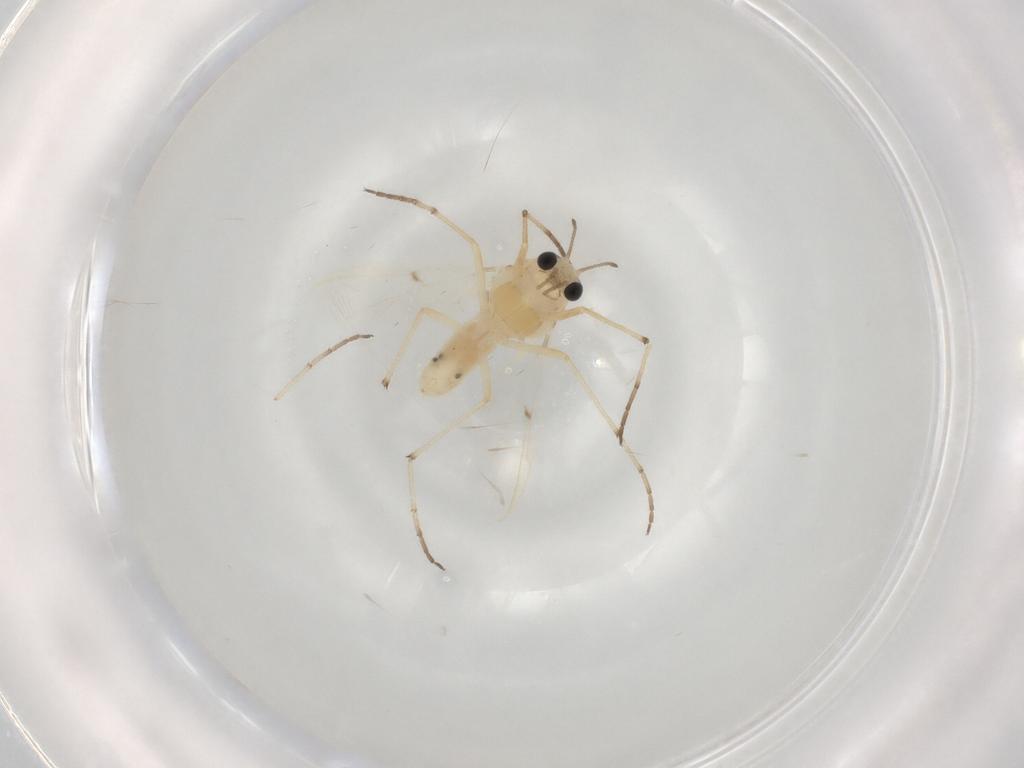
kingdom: Animalia
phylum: Arthropoda
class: Insecta
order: Diptera
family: Chironomidae
